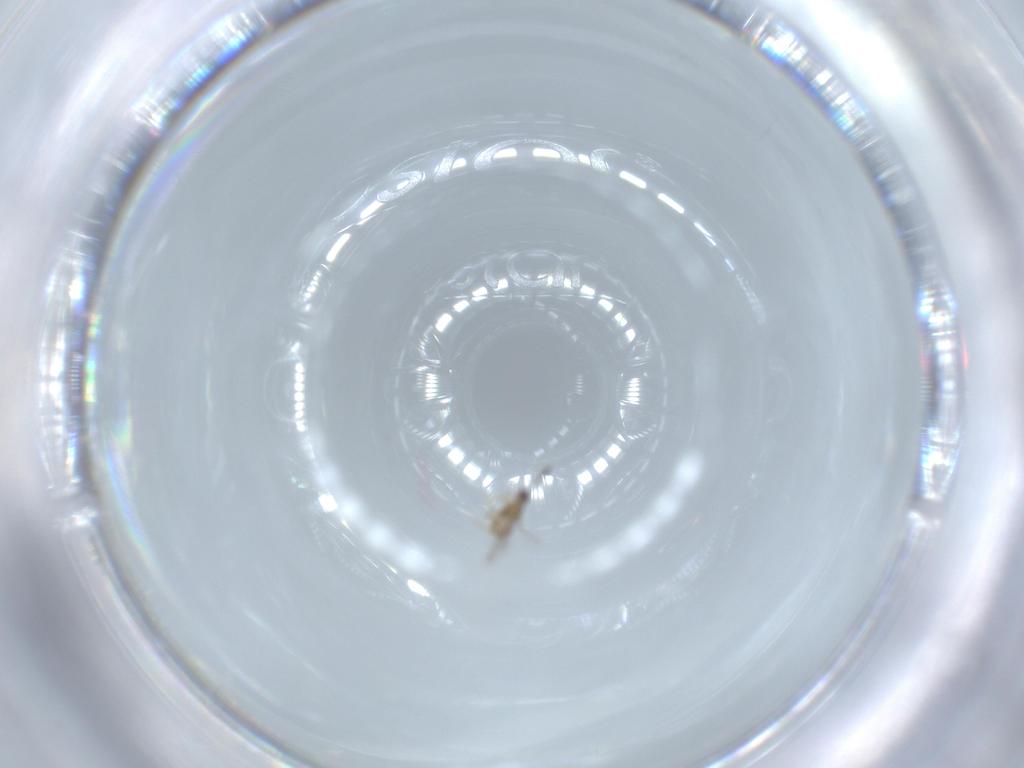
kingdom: Animalia
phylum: Arthropoda
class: Insecta
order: Hymenoptera
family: Mymaridae
